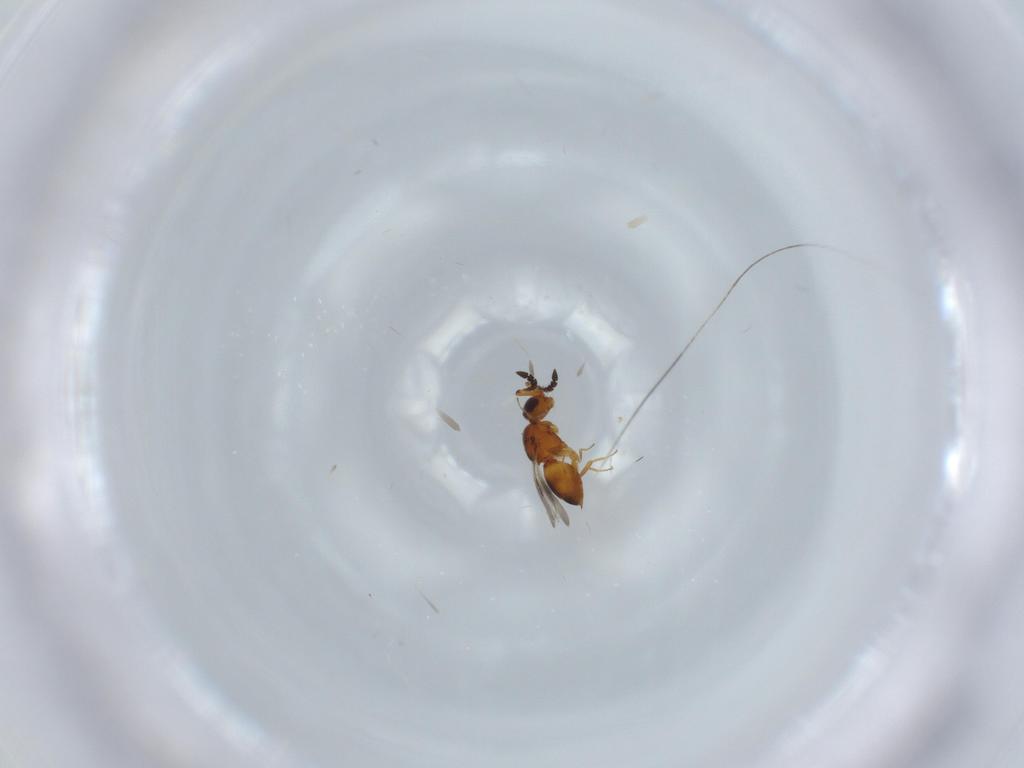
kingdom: Animalia
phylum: Arthropoda
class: Insecta
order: Hymenoptera
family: Ceraphronidae
